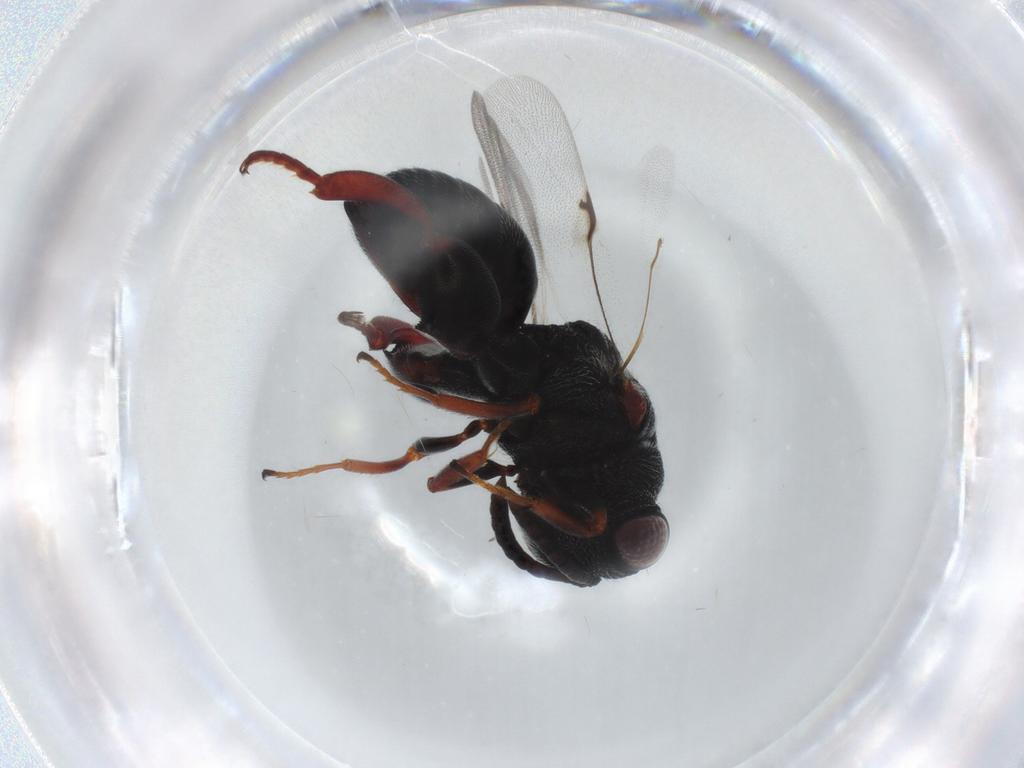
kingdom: Animalia
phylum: Arthropoda
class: Insecta
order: Hymenoptera
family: Chalcididae
